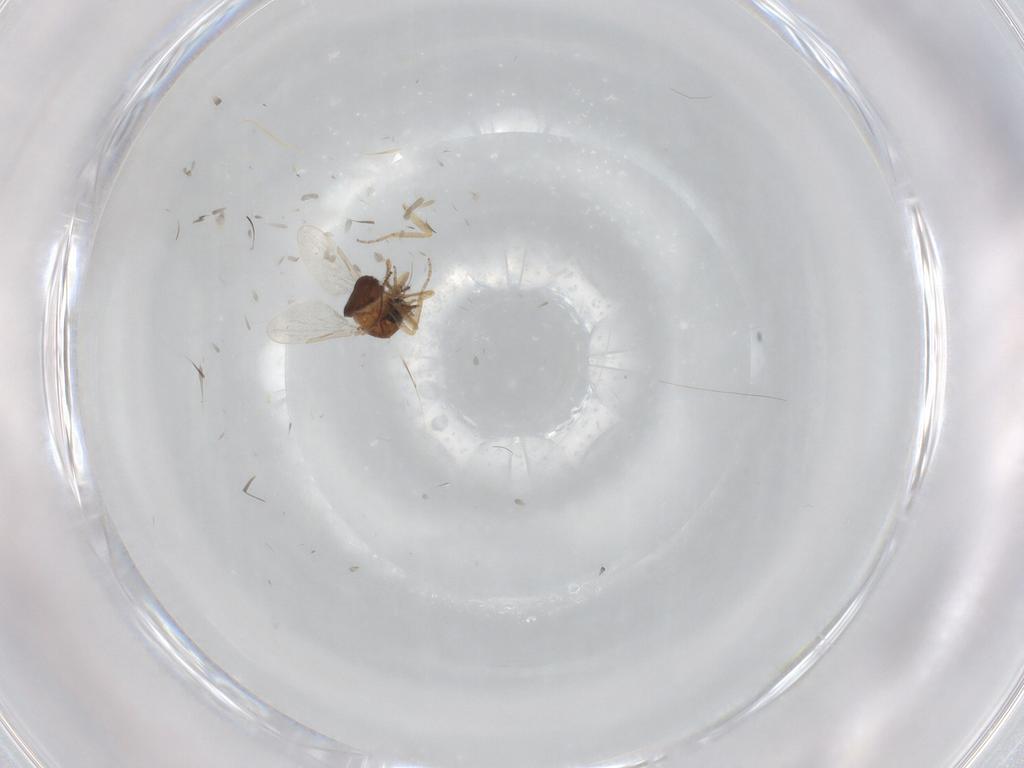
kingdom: Animalia
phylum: Arthropoda
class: Insecta
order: Diptera
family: Ceratopogonidae
